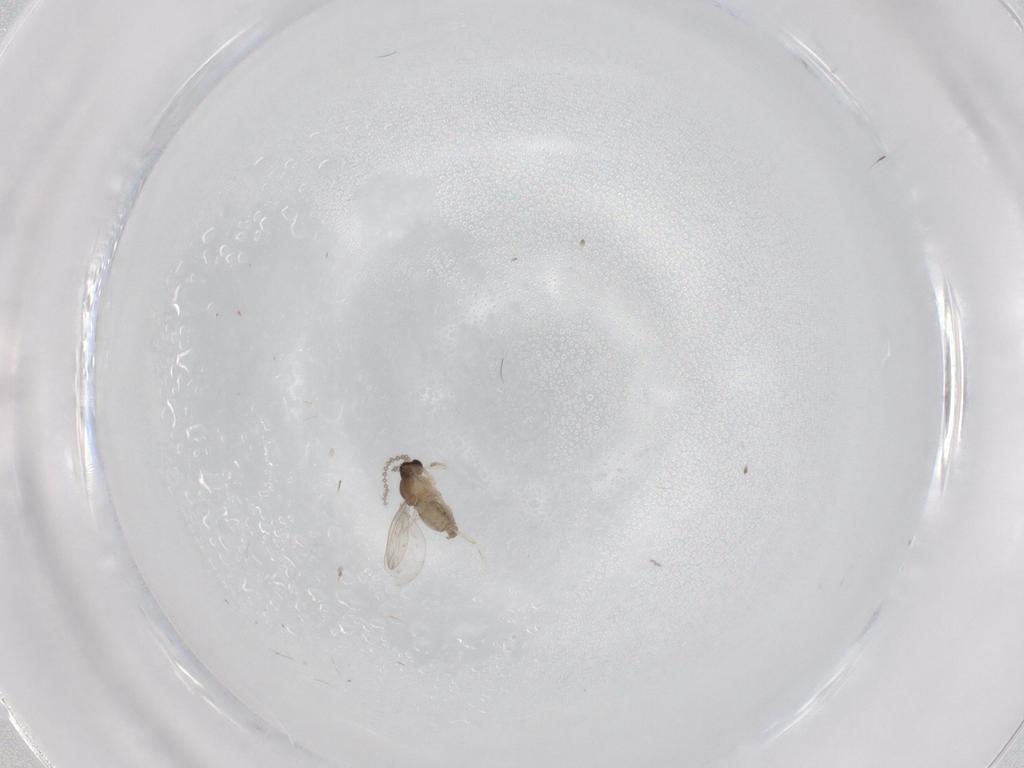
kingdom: Animalia
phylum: Arthropoda
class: Insecta
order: Diptera
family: Cecidomyiidae
